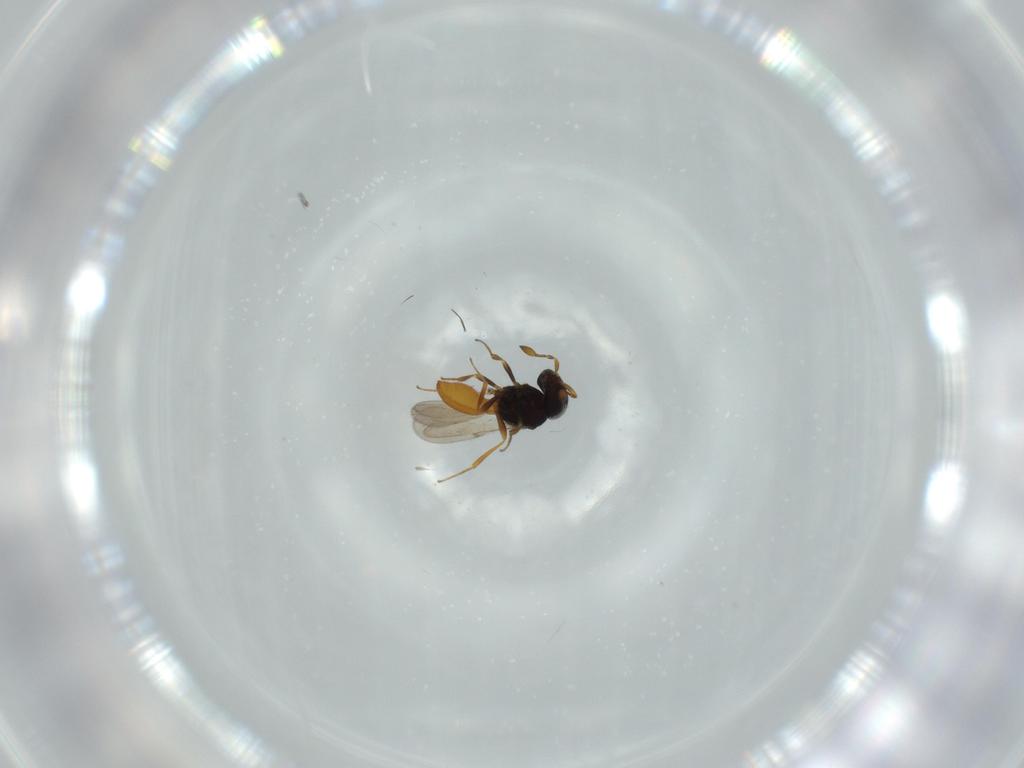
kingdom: Animalia
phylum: Arthropoda
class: Insecta
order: Hymenoptera
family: Scelionidae
